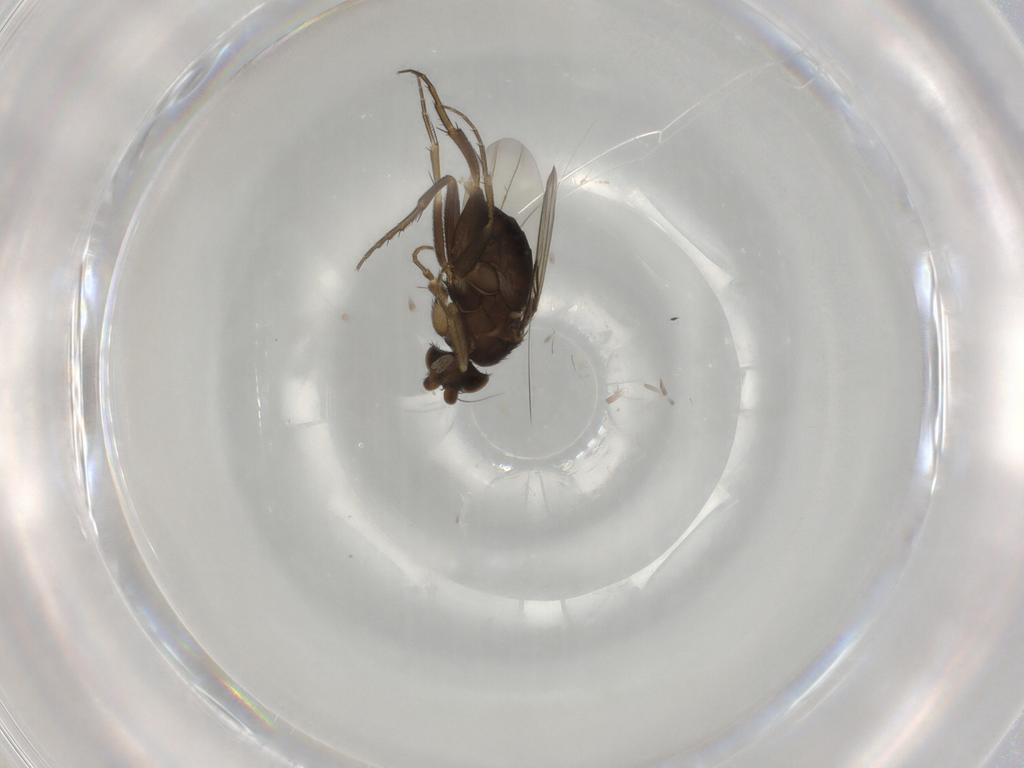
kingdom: Animalia
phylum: Arthropoda
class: Insecta
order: Diptera
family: Phoridae
